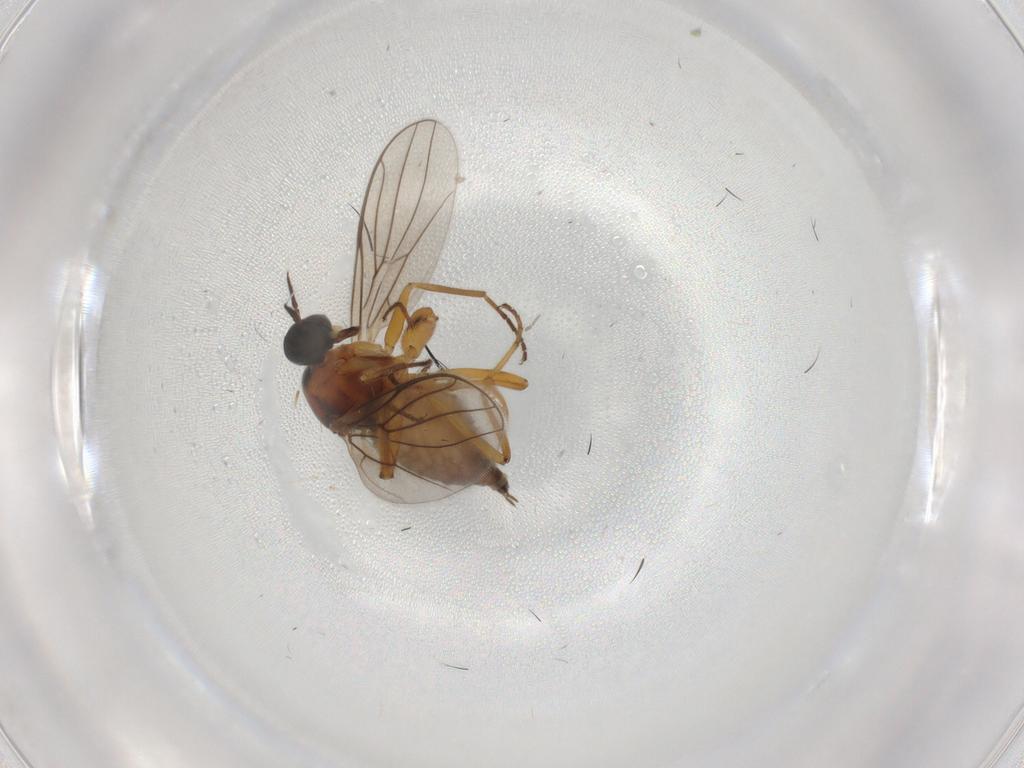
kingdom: Animalia
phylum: Arthropoda
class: Insecta
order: Diptera
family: Hybotidae
